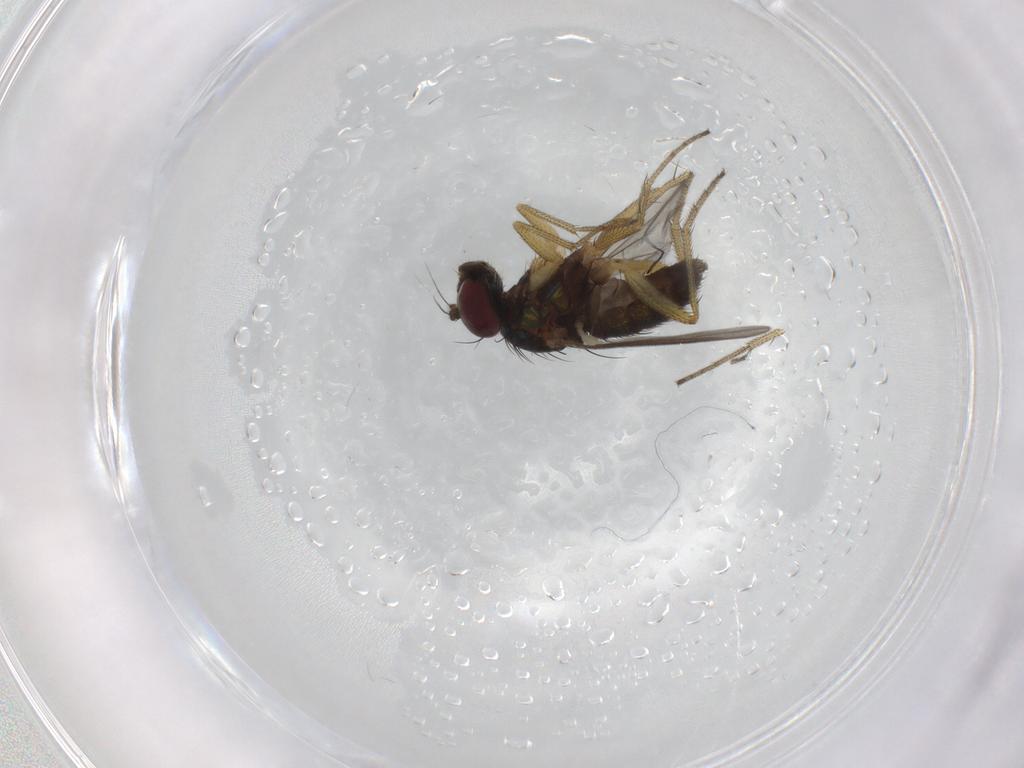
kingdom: Animalia
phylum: Arthropoda
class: Insecta
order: Diptera
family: Dolichopodidae
